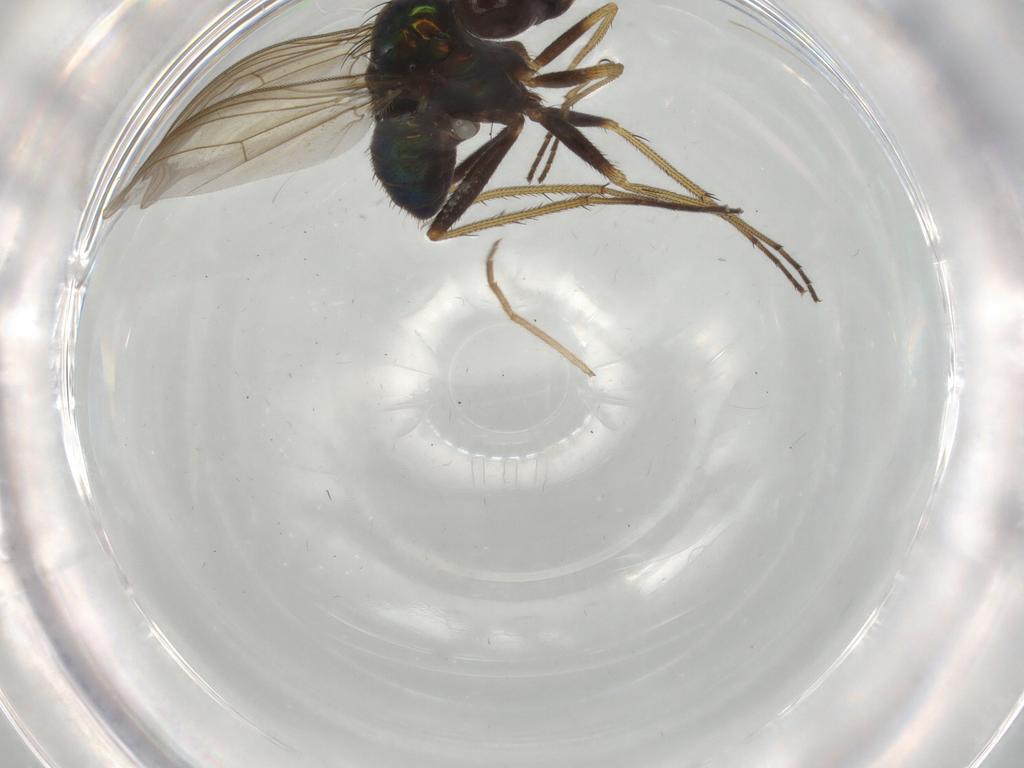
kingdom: Animalia
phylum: Arthropoda
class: Insecta
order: Diptera
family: Dolichopodidae
